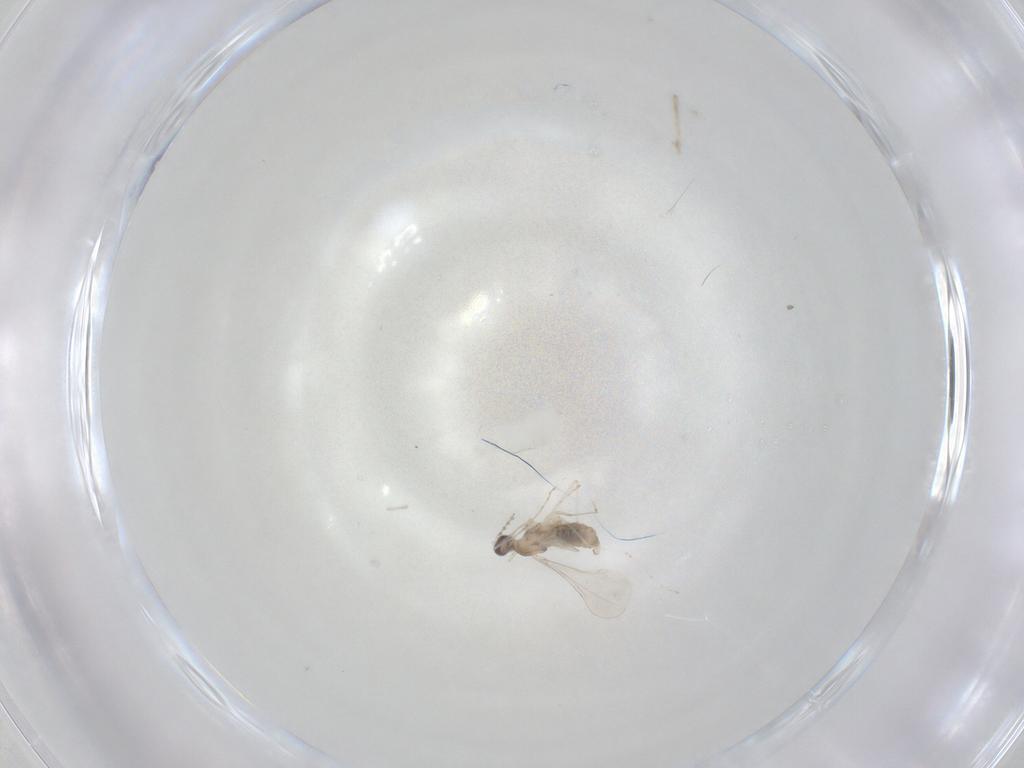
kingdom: Animalia
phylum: Arthropoda
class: Insecta
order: Diptera
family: Cecidomyiidae
